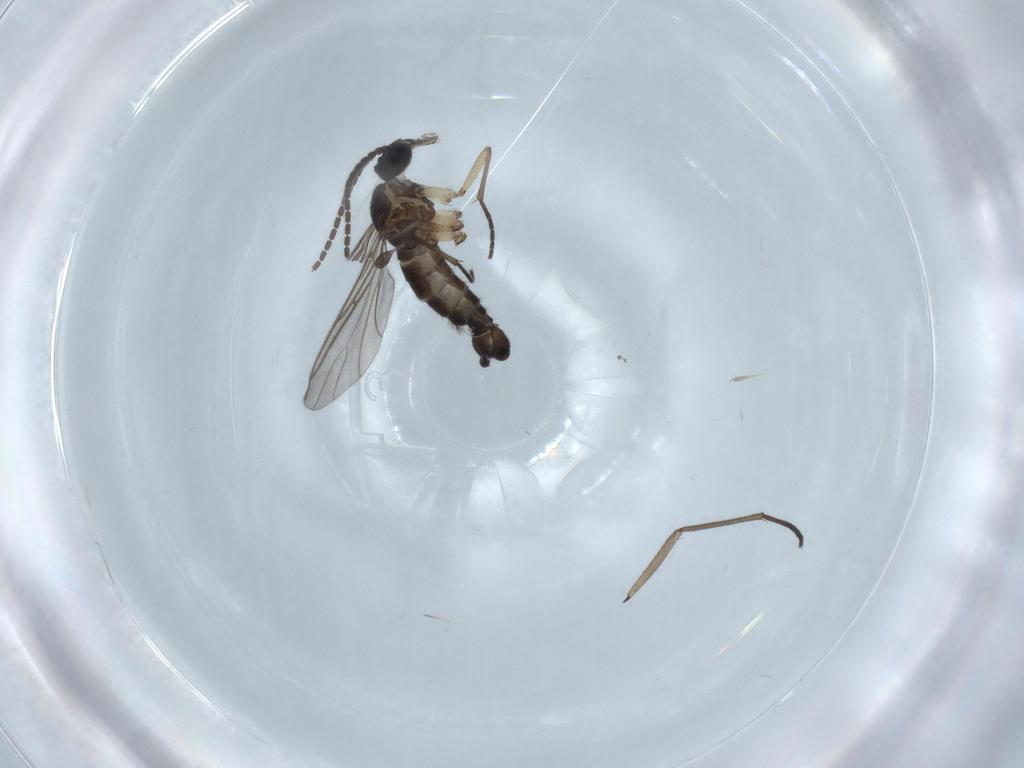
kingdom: Animalia
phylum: Arthropoda
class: Insecta
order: Diptera
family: Cecidomyiidae
